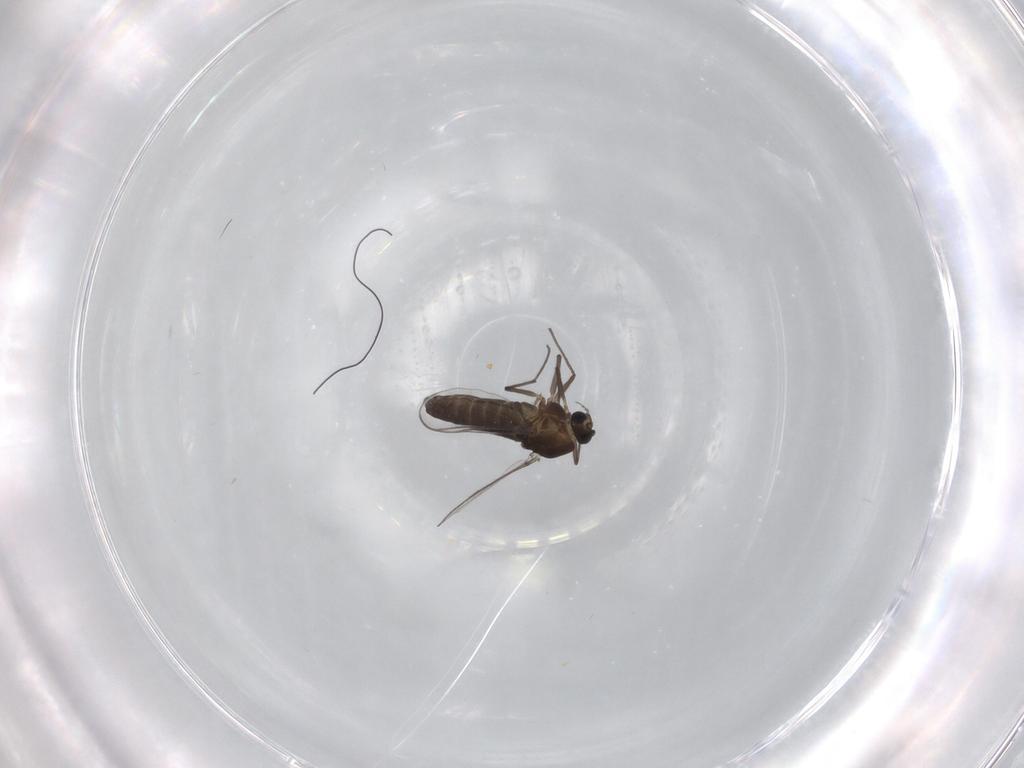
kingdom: Animalia
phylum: Arthropoda
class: Insecta
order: Diptera
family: Chironomidae
